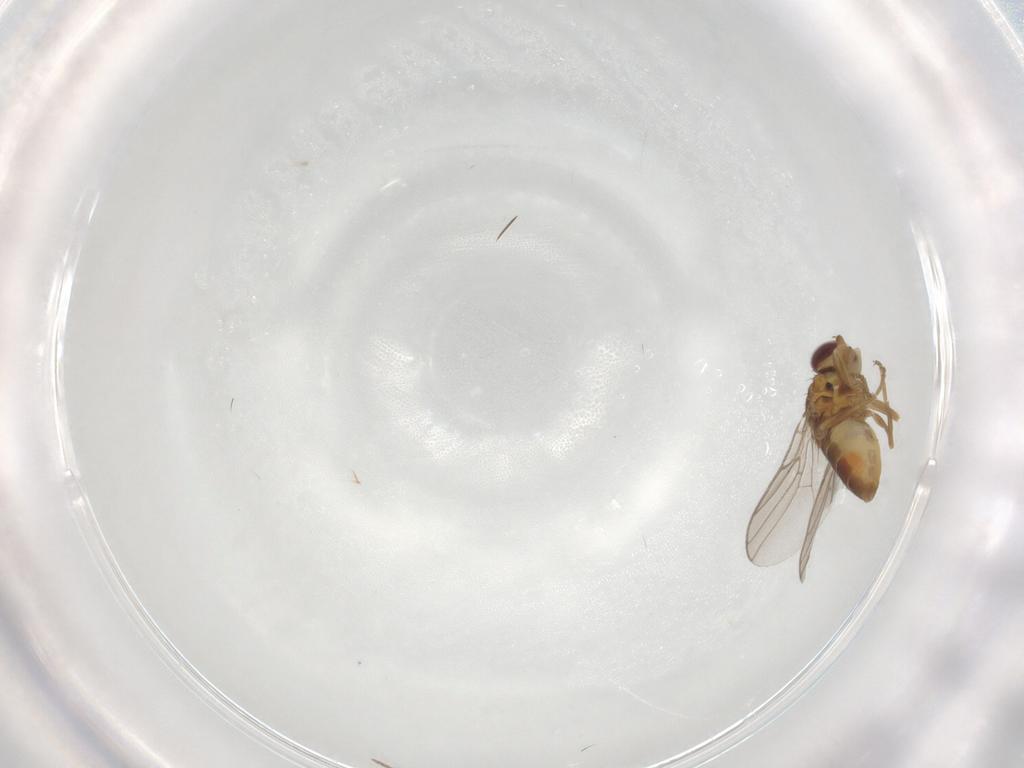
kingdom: Animalia
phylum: Arthropoda
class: Insecta
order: Diptera
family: Chloropidae
